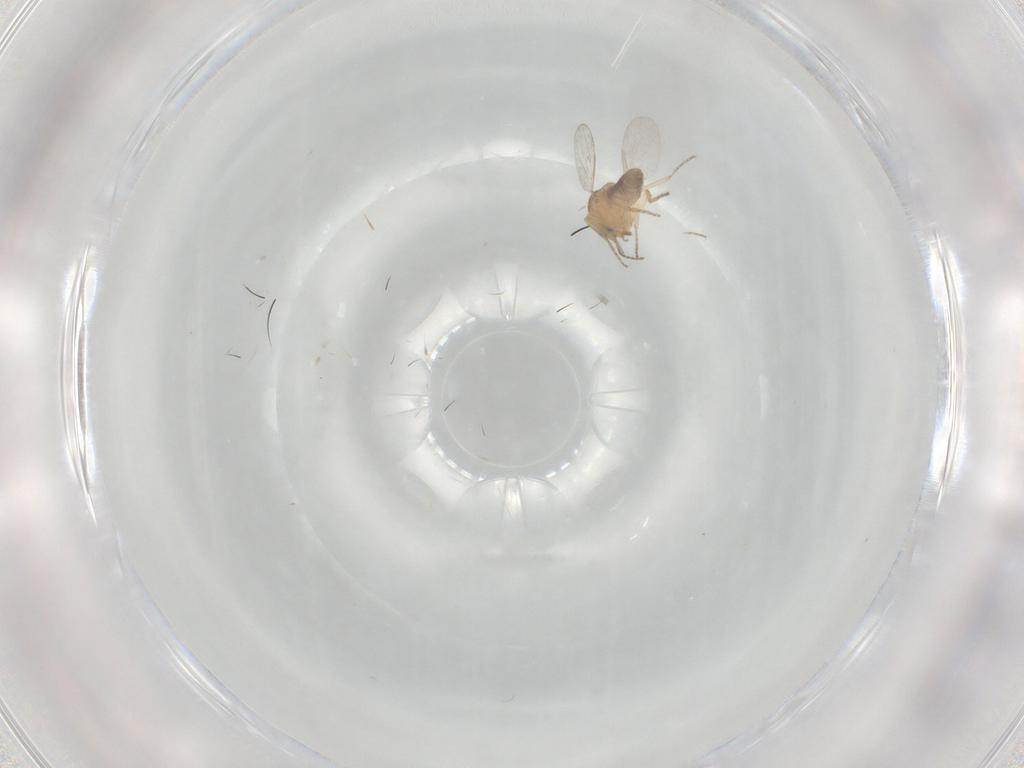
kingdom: Animalia
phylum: Arthropoda
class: Insecta
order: Diptera
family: Ceratopogonidae
